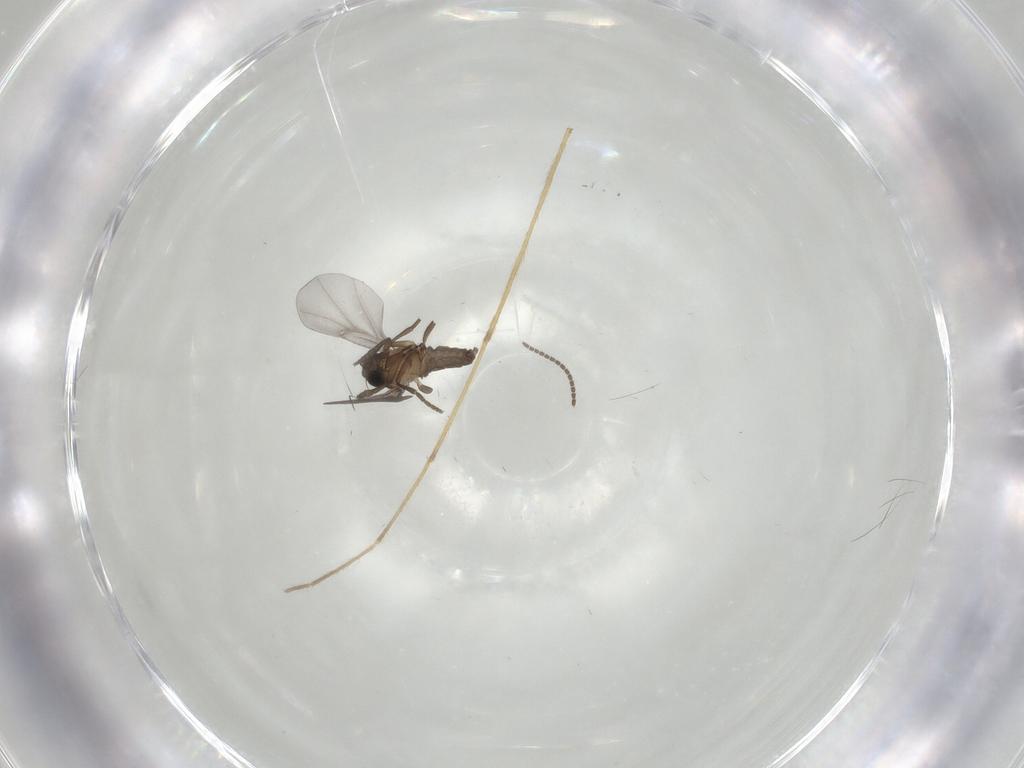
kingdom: Animalia
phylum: Arthropoda
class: Insecta
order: Diptera
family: Phoridae
